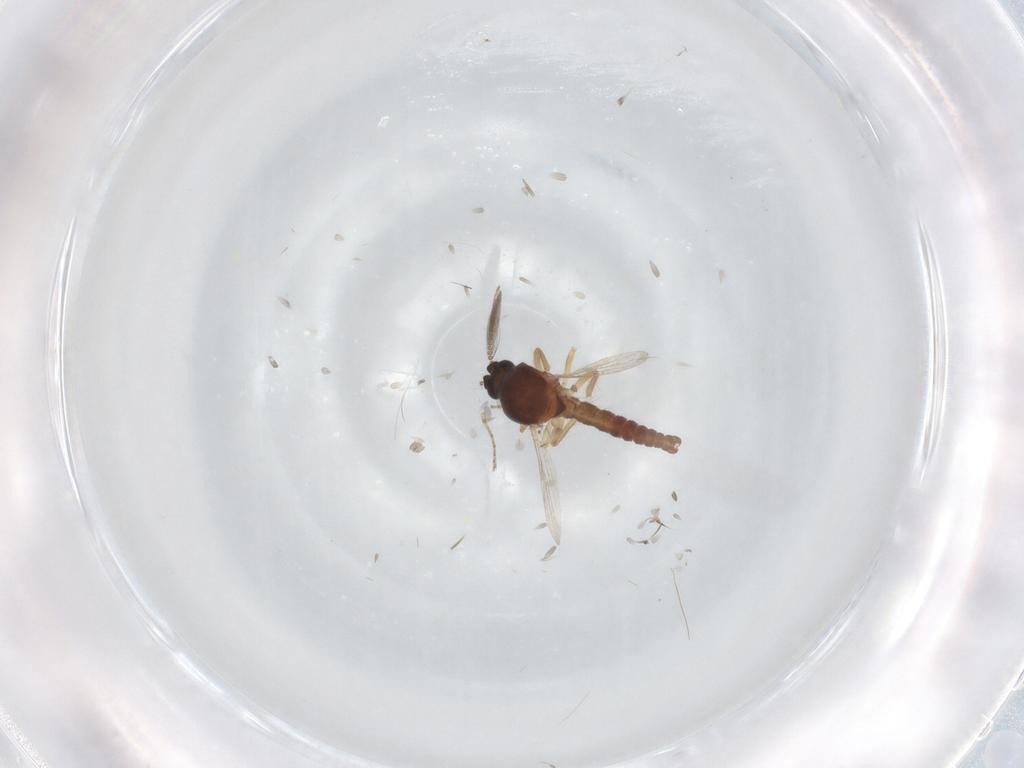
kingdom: Animalia
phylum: Arthropoda
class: Insecta
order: Diptera
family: Ceratopogonidae
